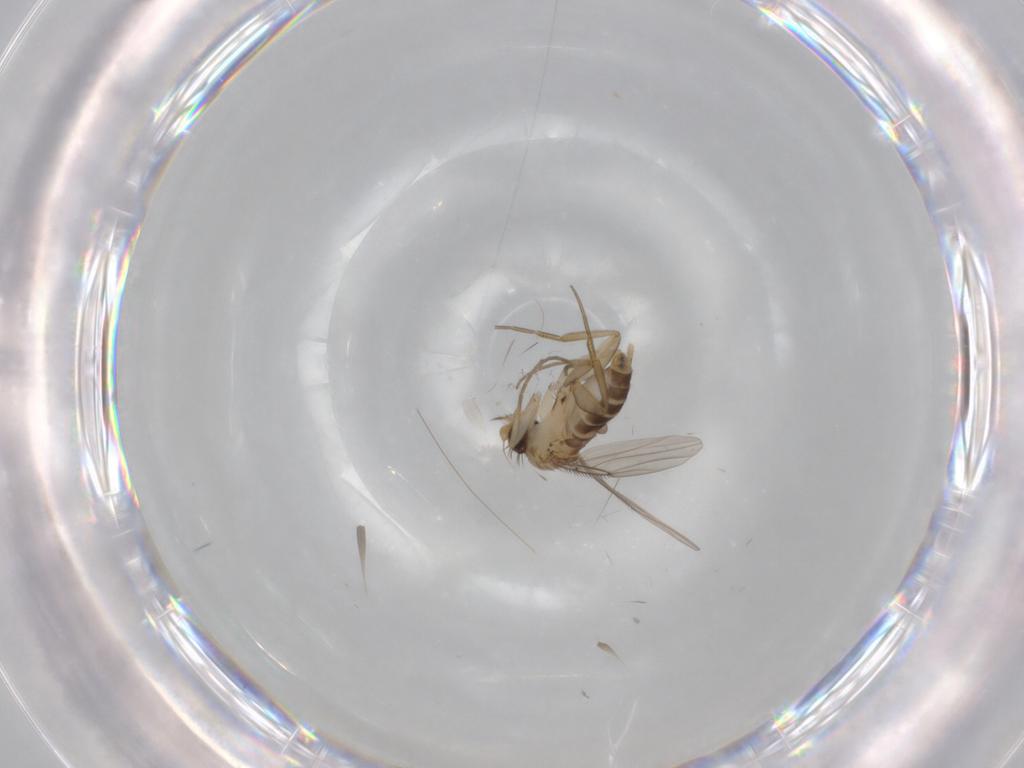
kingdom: Animalia
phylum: Arthropoda
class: Insecta
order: Diptera
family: Phoridae
